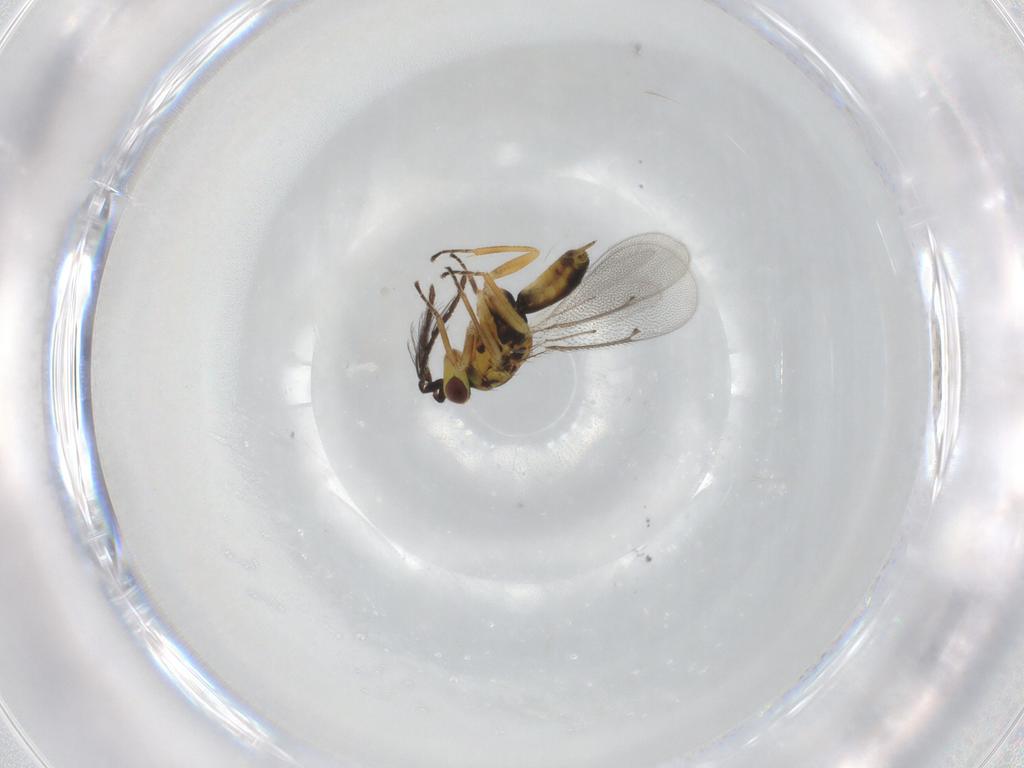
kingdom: Animalia
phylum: Arthropoda
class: Insecta
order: Hymenoptera
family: Eulophidae
